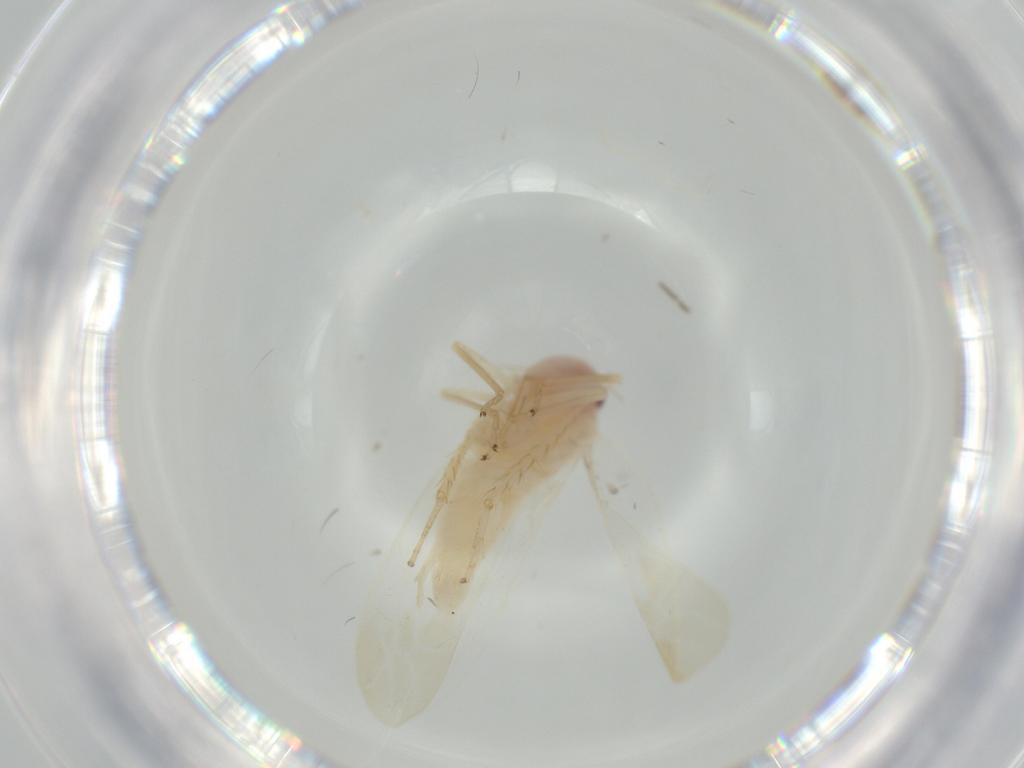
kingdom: Animalia
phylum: Arthropoda
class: Insecta
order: Hemiptera
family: Cicadellidae
